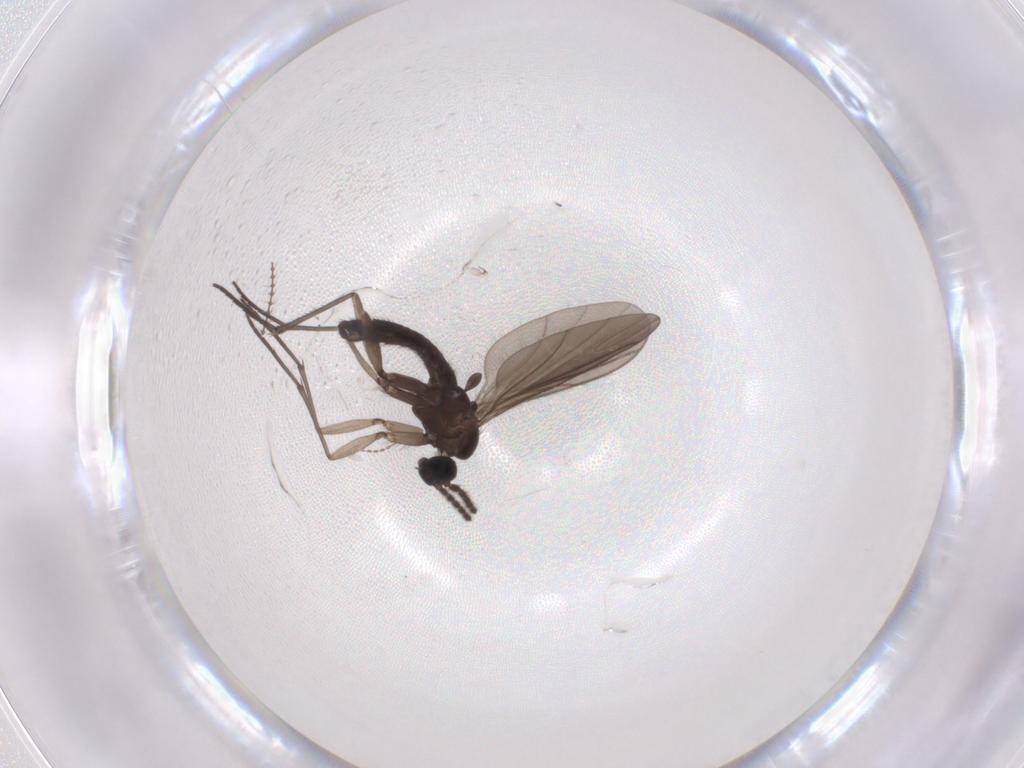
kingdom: Animalia
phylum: Arthropoda
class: Insecta
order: Diptera
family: Sciaridae
